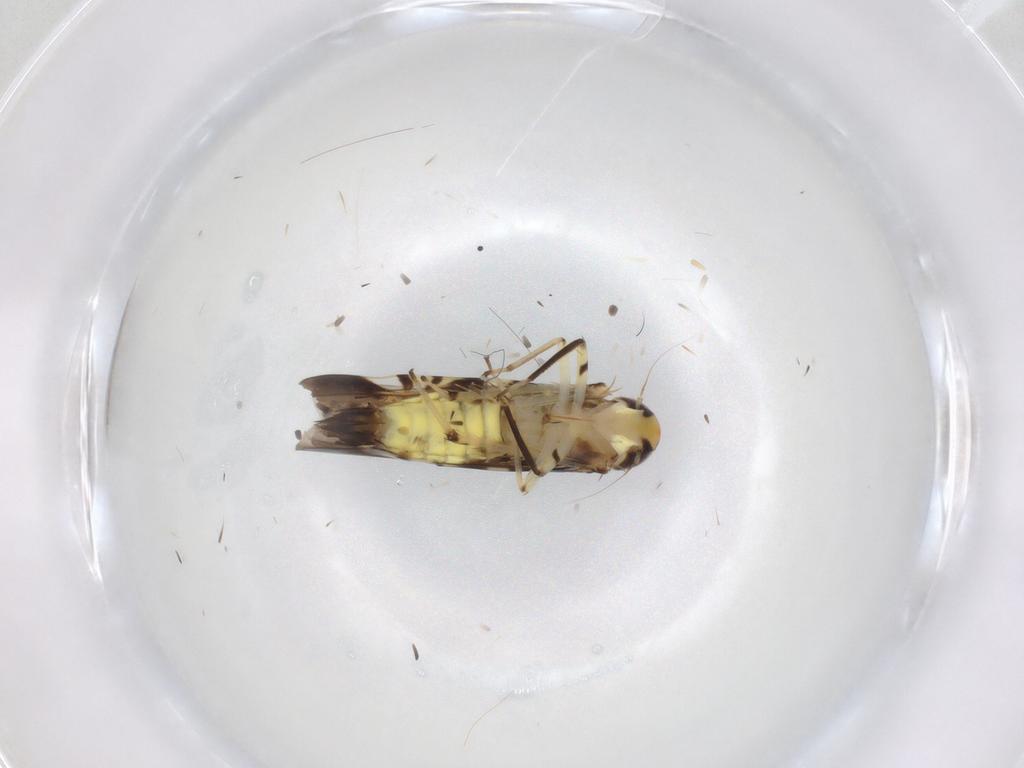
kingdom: Animalia
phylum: Arthropoda
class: Insecta
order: Hemiptera
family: Cicadellidae
